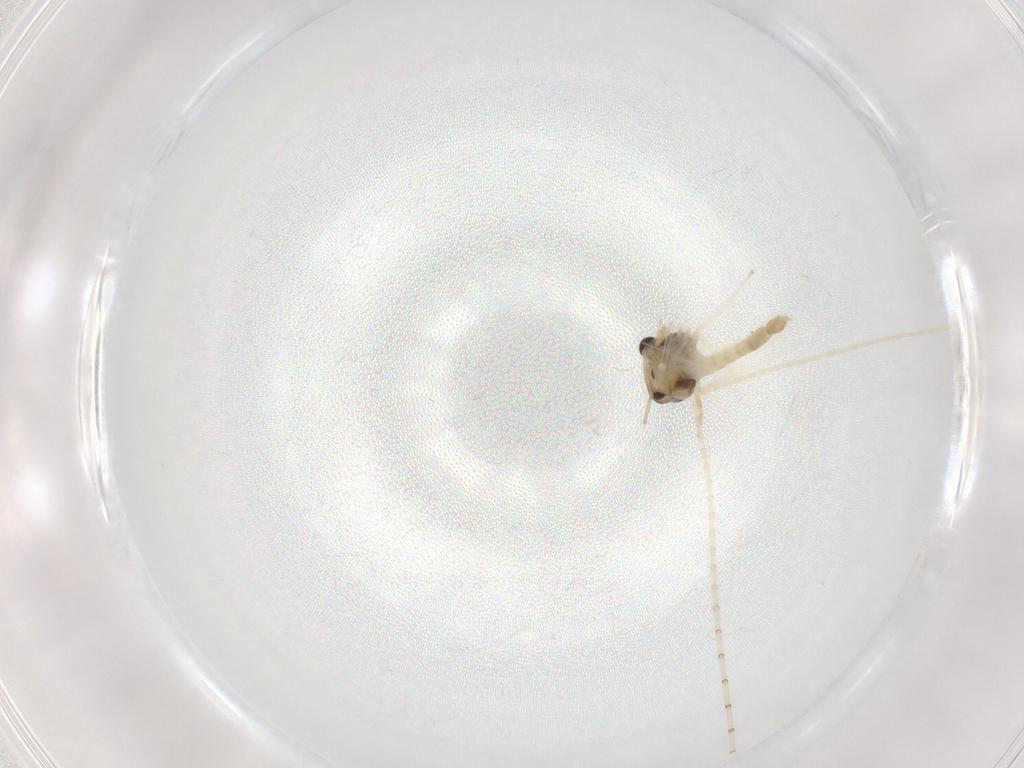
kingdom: Animalia
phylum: Arthropoda
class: Insecta
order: Diptera
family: Chironomidae
